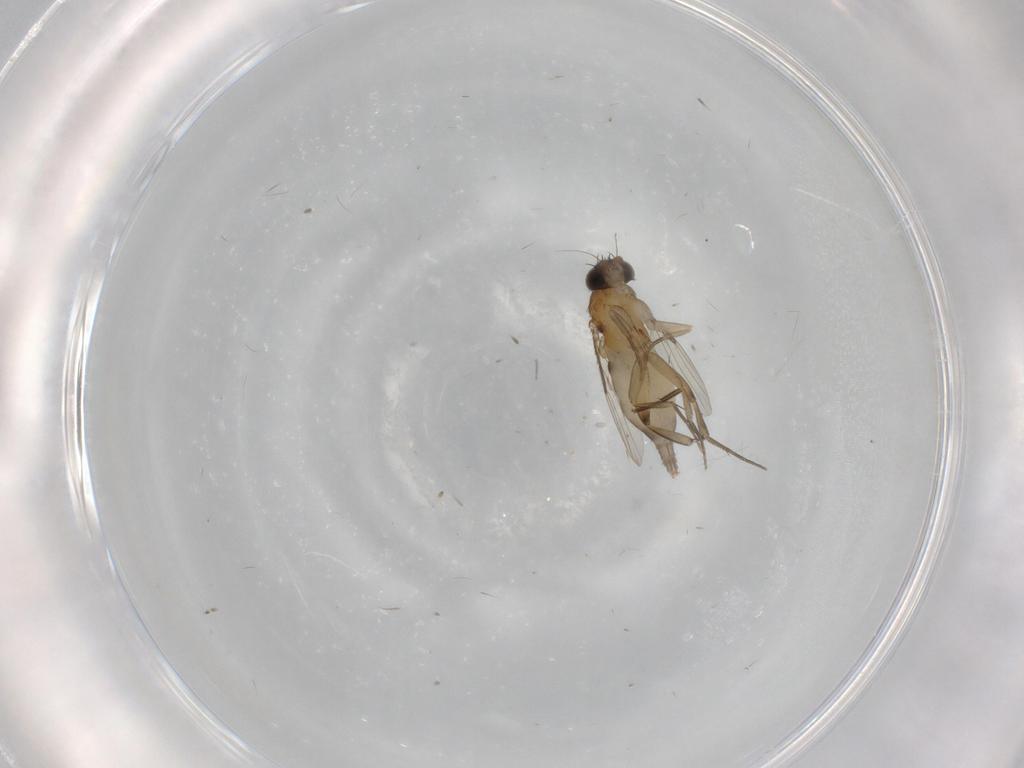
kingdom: Animalia
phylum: Arthropoda
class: Insecta
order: Diptera
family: Phoridae
